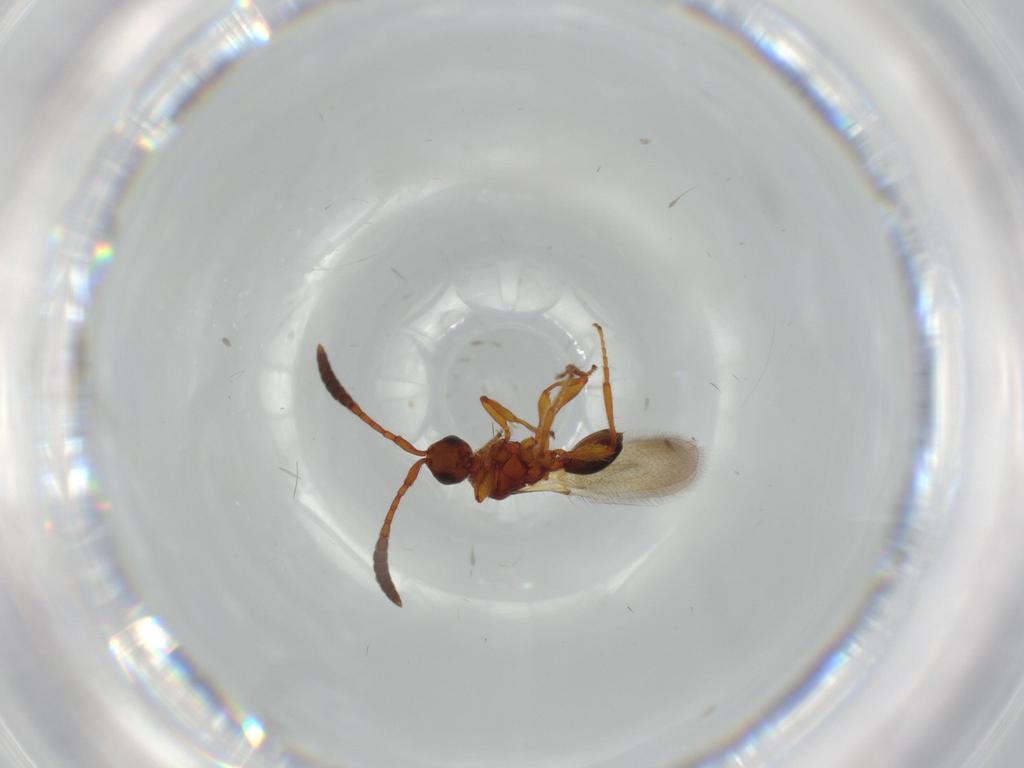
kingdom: Animalia
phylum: Arthropoda
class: Insecta
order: Hymenoptera
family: Diapriidae
